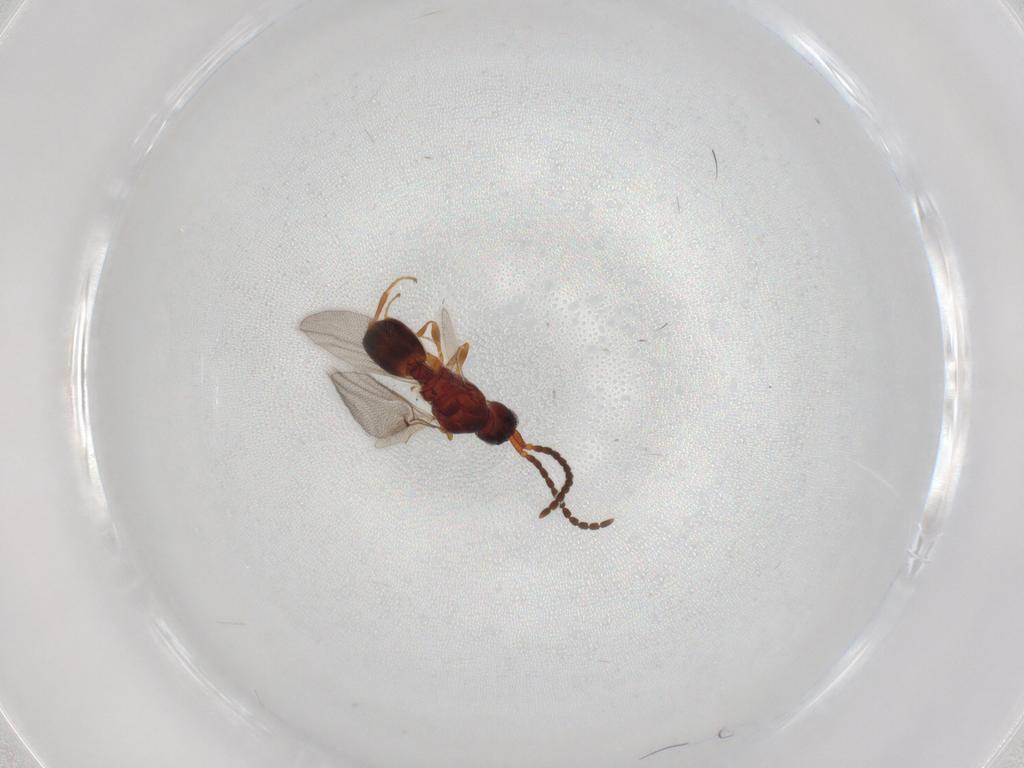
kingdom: Animalia
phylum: Arthropoda
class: Insecta
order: Hymenoptera
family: Diapriidae
